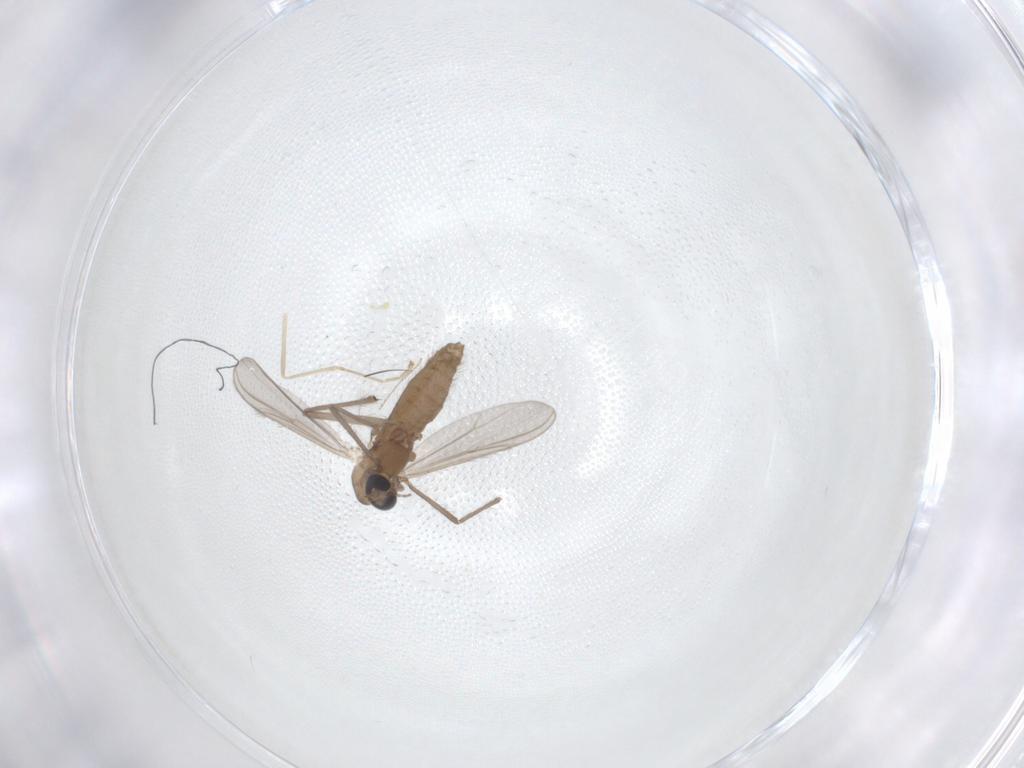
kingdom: Animalia
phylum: Arthropoda
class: Insecta
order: Diptera
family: Chironomidae
